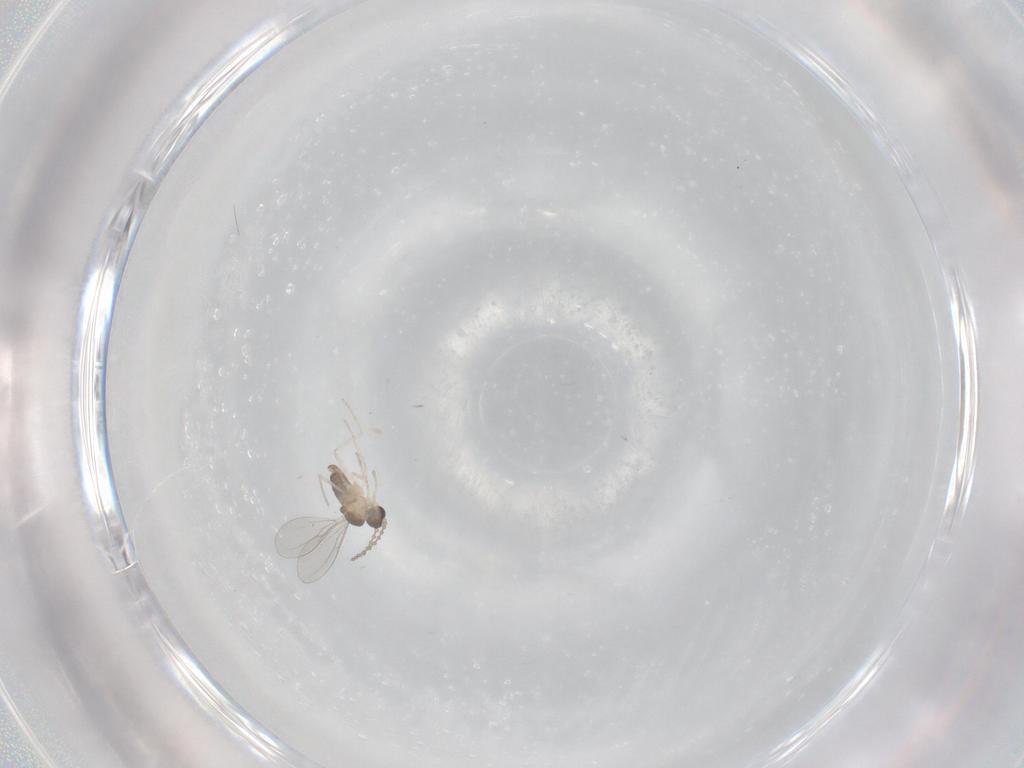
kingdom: Animalia
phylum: Arthropoda
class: Insecta
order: Diptera
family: Cecidomyiidae
